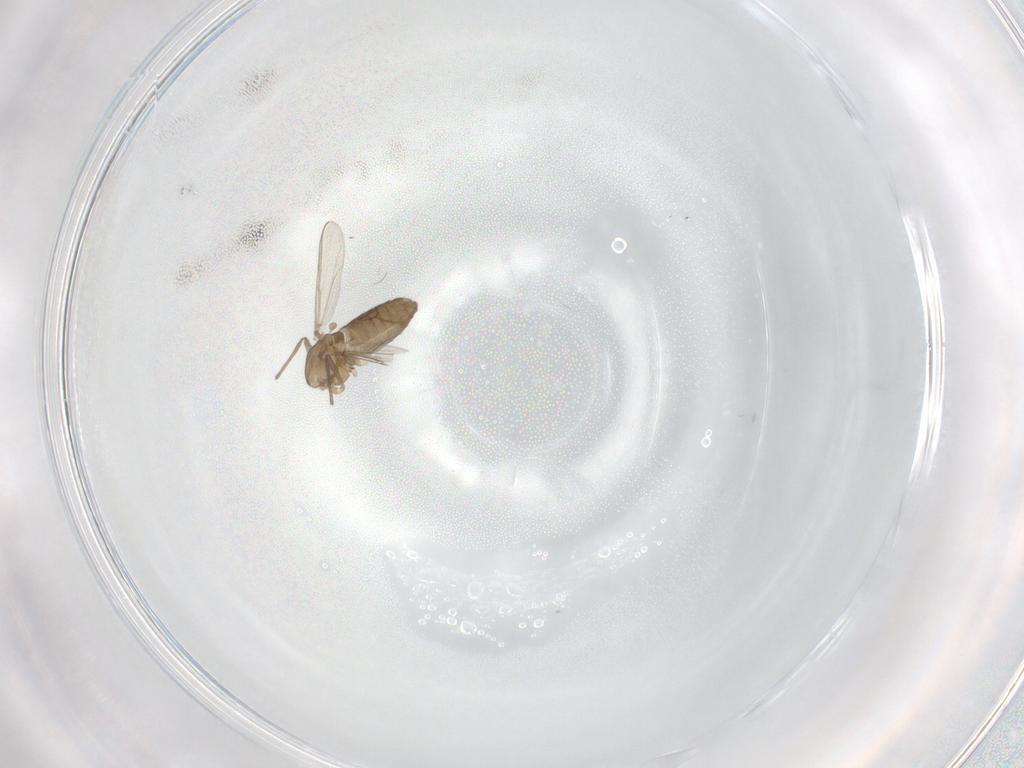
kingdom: Animalia
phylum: Arthropoda
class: Insecta
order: Diptera
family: Chironomidae
